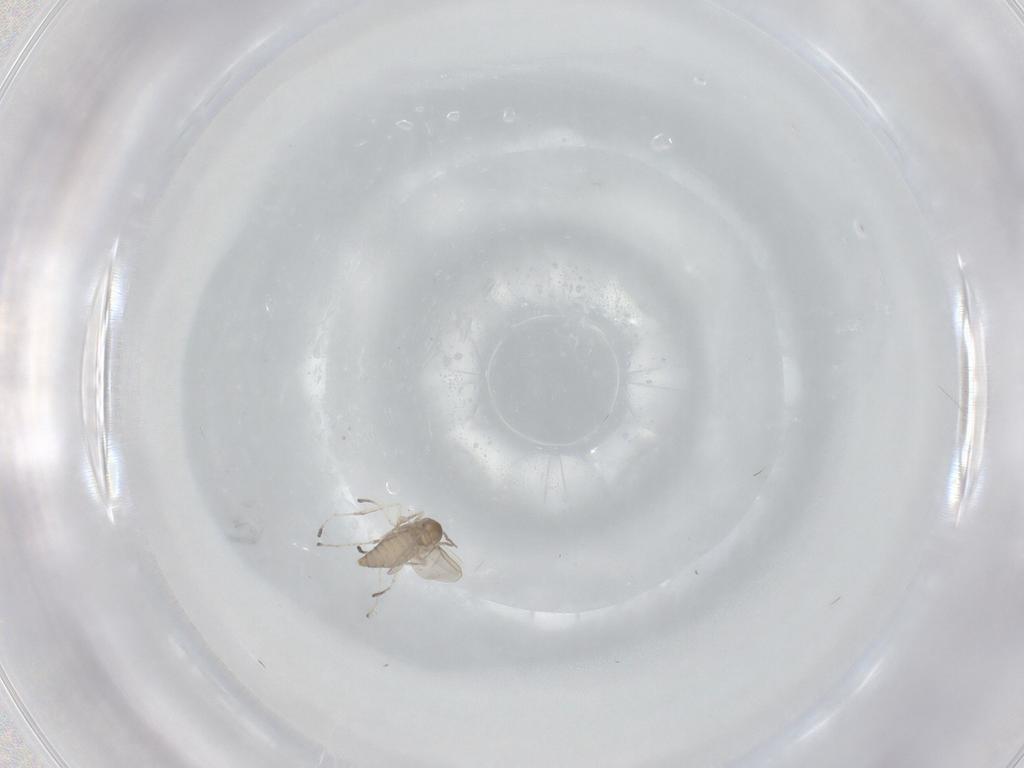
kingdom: Animalia
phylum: Arthropoda
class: Insecta
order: Diptera
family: Cecidomyiidae
